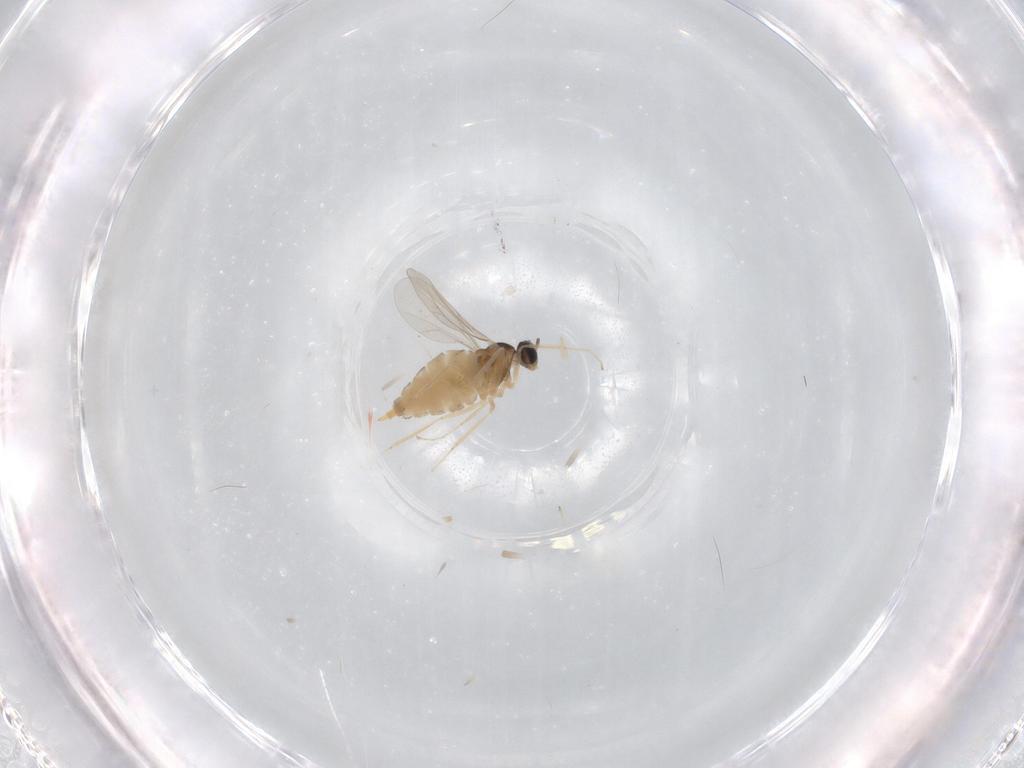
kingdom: Animalia
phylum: Arthropoda
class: Insecta
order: Diptera
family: Cecidomyiidae
